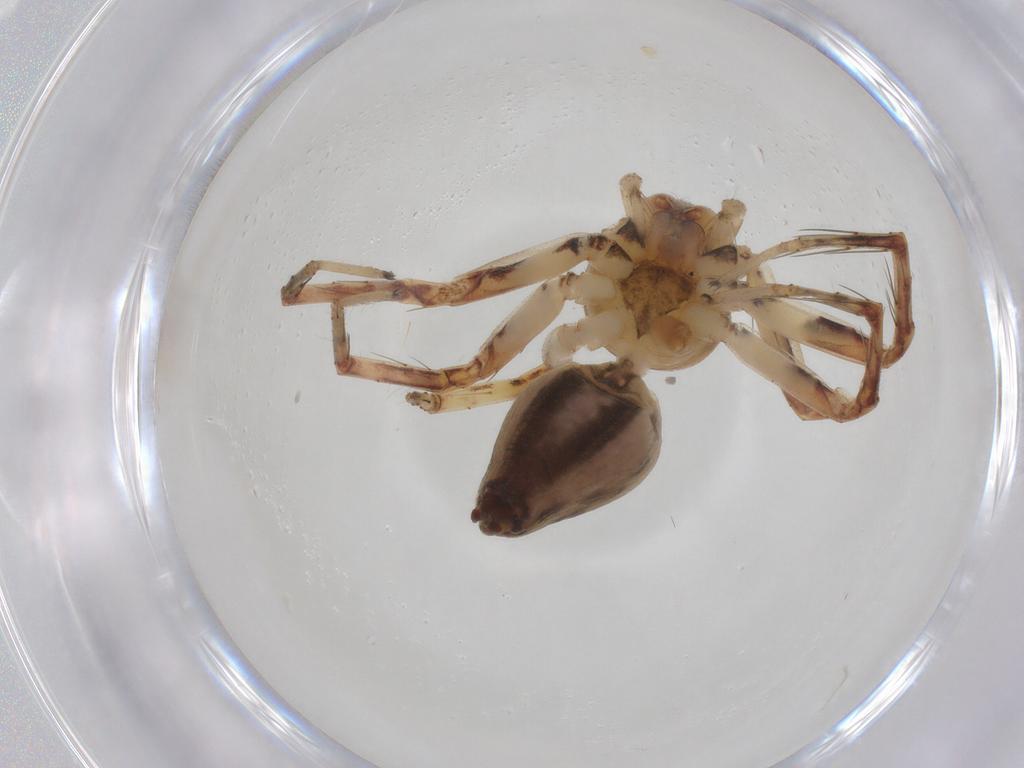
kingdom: Animalia
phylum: Arthropoda
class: Arachnida
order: Araneae
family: Oxyopidae
